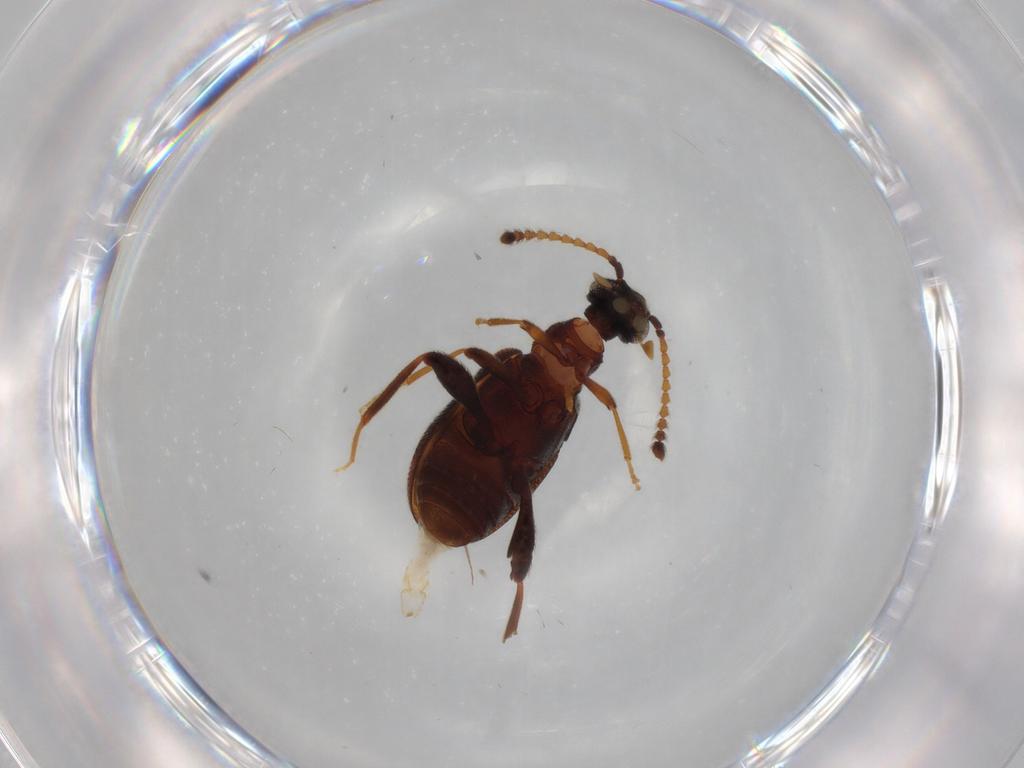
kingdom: Animalia
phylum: Arthropoda
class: Insecta
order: Coleoptera
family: Aderidae
